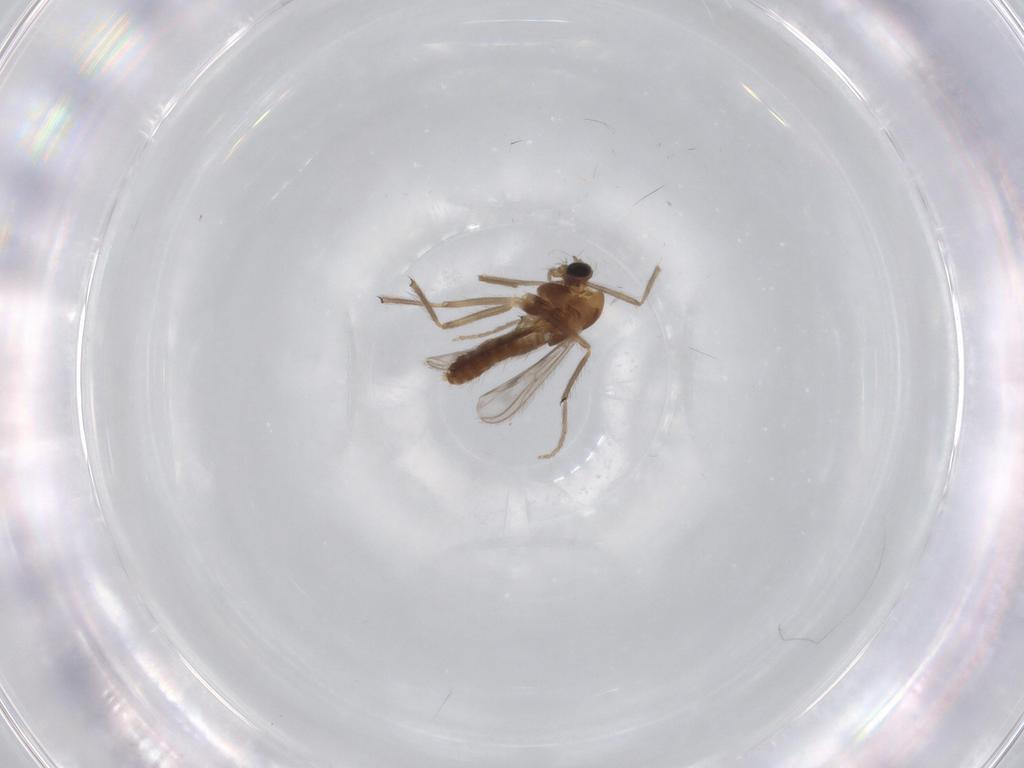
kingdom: Animalia
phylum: Arthropoda
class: Insecta
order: Diptera
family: Chironomidae
